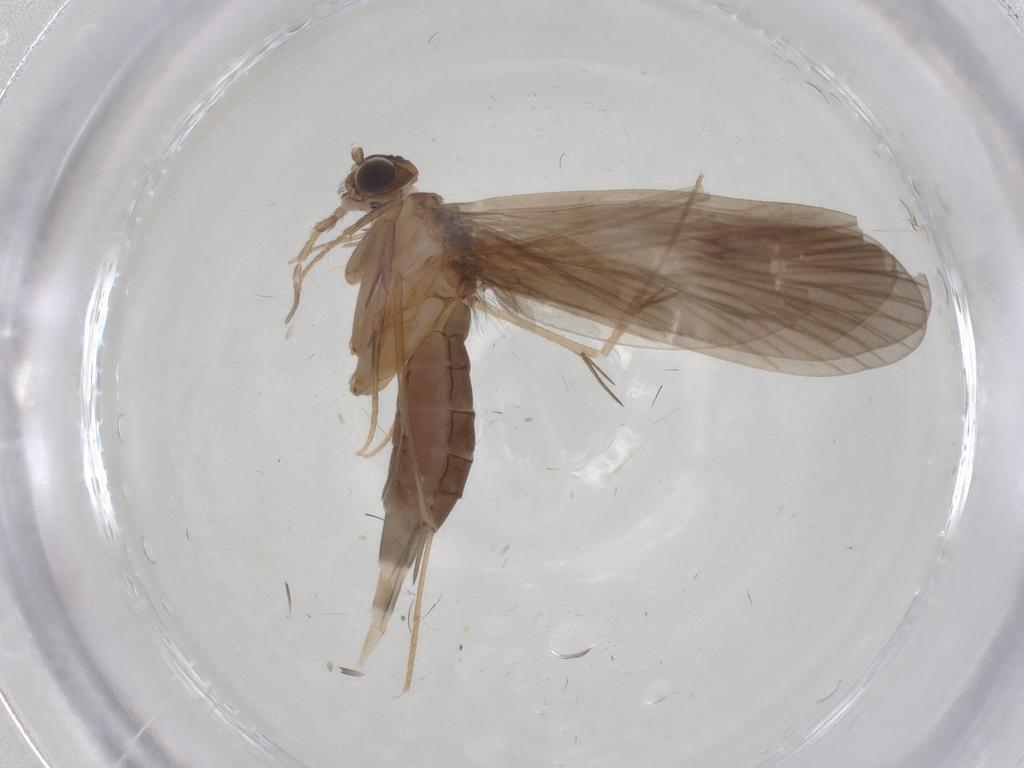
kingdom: Animalia
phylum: Arthropoda
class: Insecta
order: Trichoptera
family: Philopotamidae
